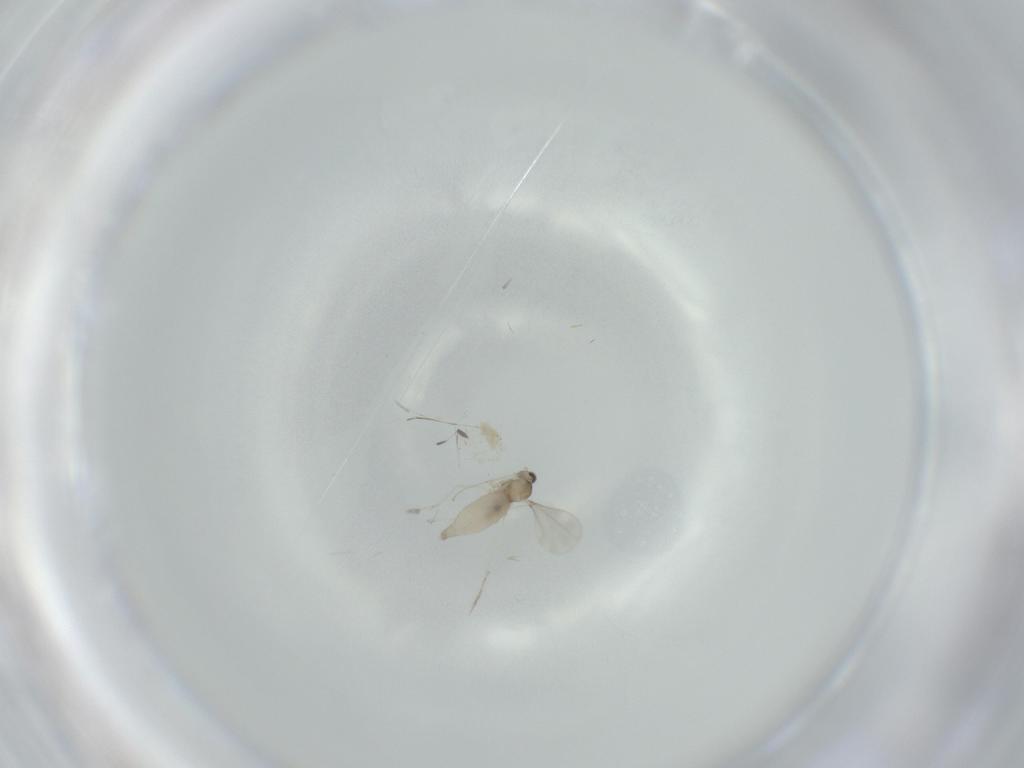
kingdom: Animalia
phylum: Arthropoda
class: Insecta
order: Diptera
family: Cecidomyiidae
